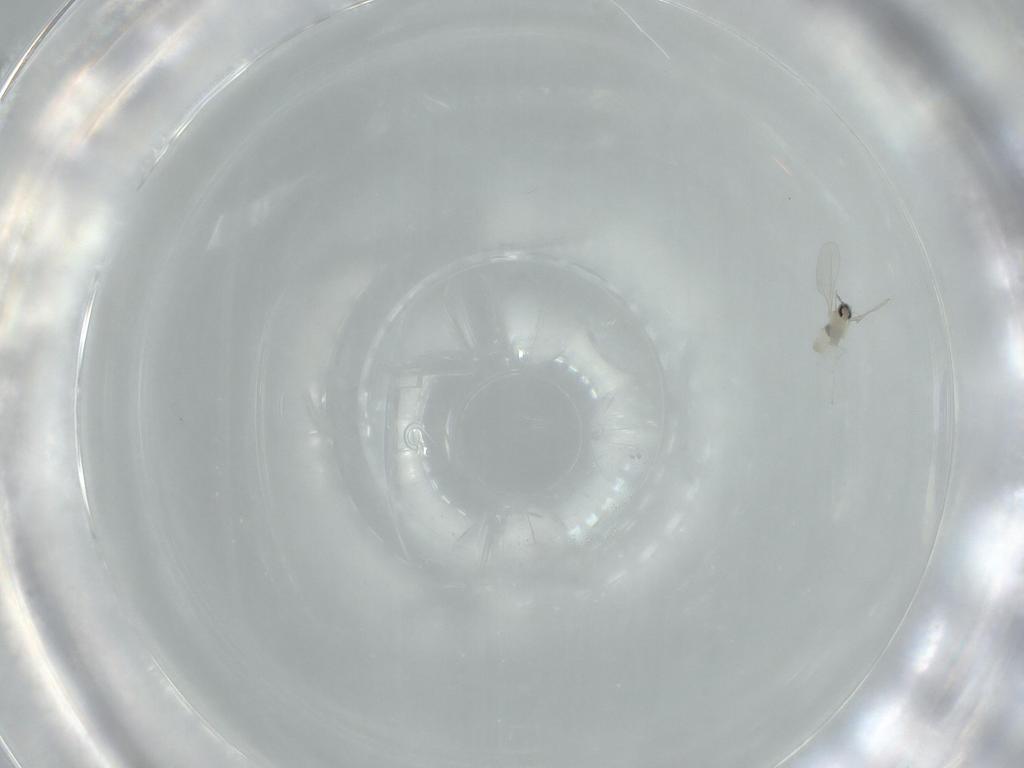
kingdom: Animalia
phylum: Arthropoda
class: Insecta
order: Diptera
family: Cecidomyiidae
